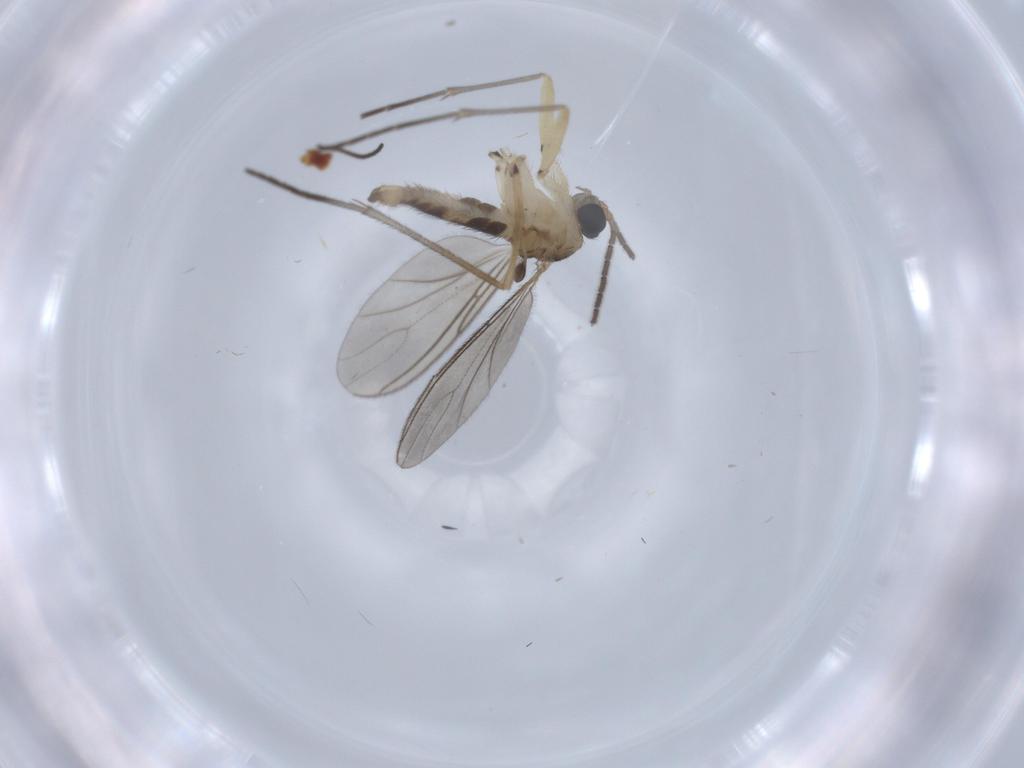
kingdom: Animalia
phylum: Arthropoda
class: Insecta
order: Diptera
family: Sciaridae
